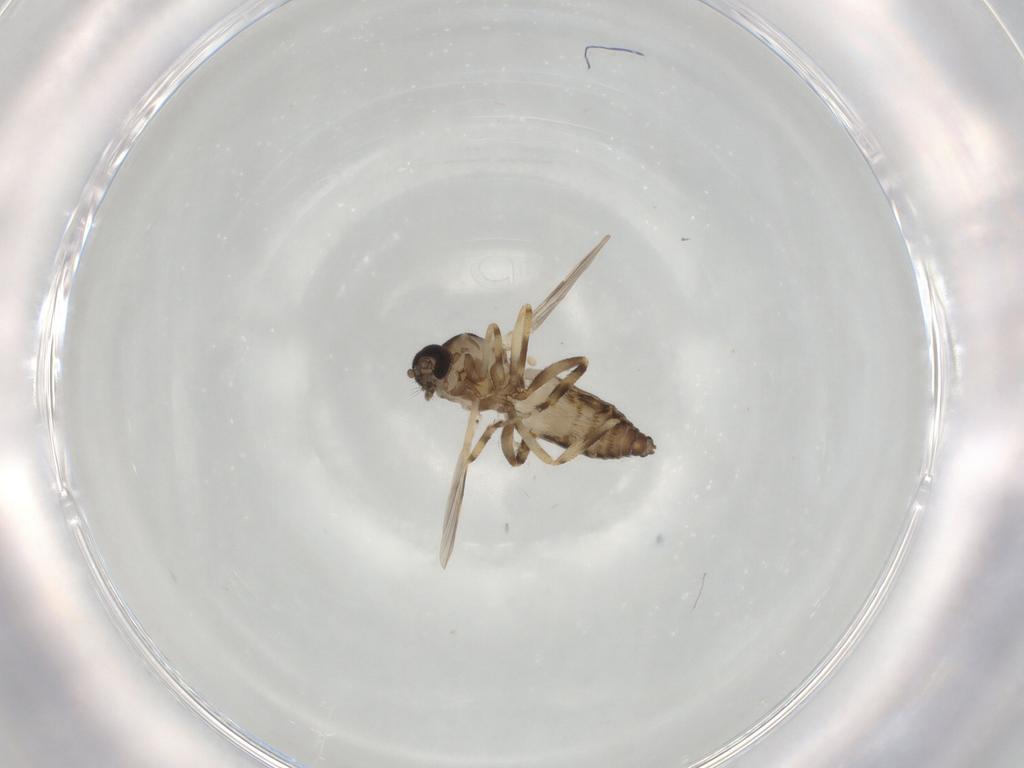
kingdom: Animalia
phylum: Arthropoda
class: Insecta
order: Diptera
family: Ceratopogonidae
